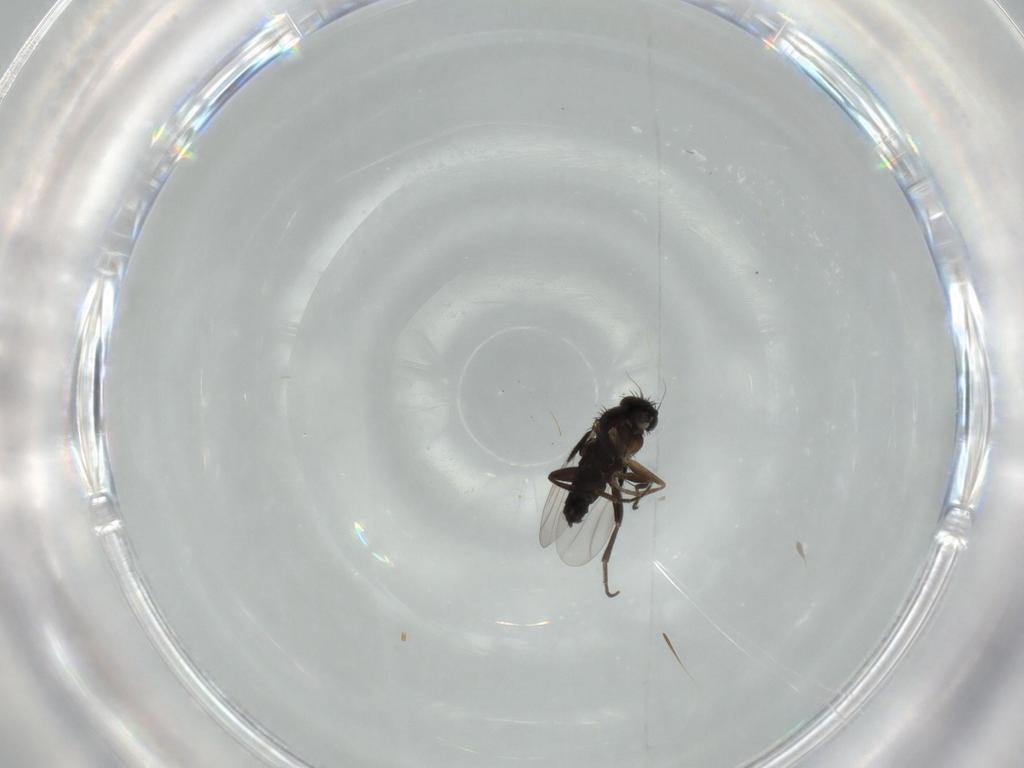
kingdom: Animalia
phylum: Arthropoda
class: Insecta
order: Diptera
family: Phoridae
